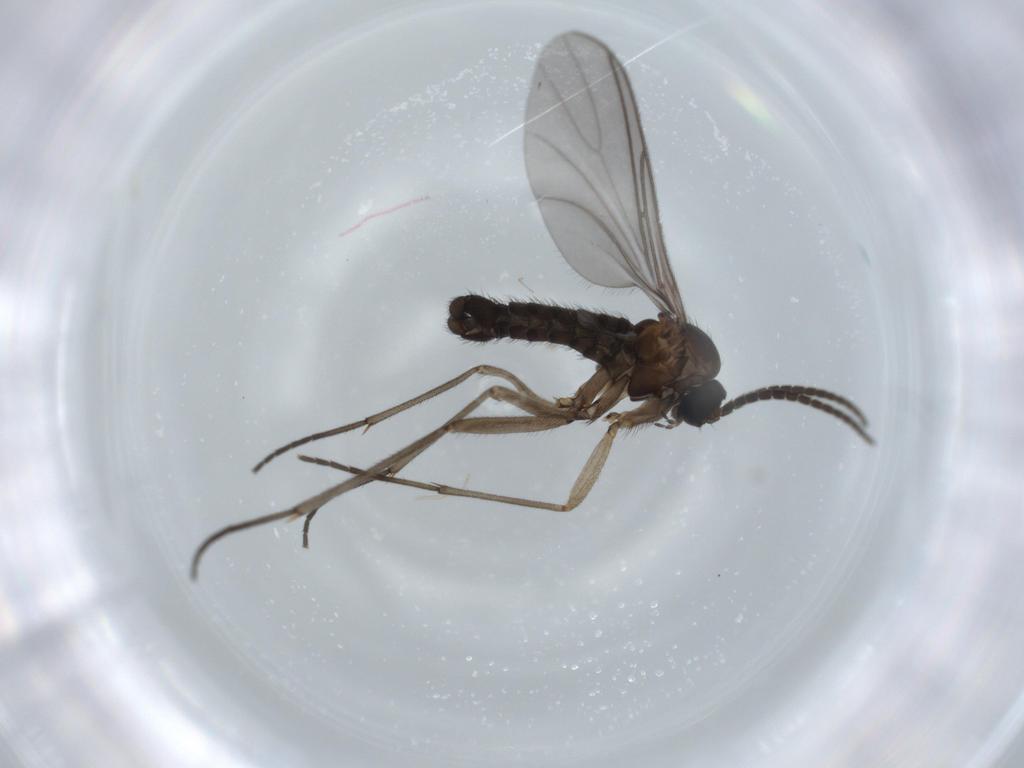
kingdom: Animalia
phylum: Arthropoda
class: Insecta
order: Diptera
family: Sciaridae
